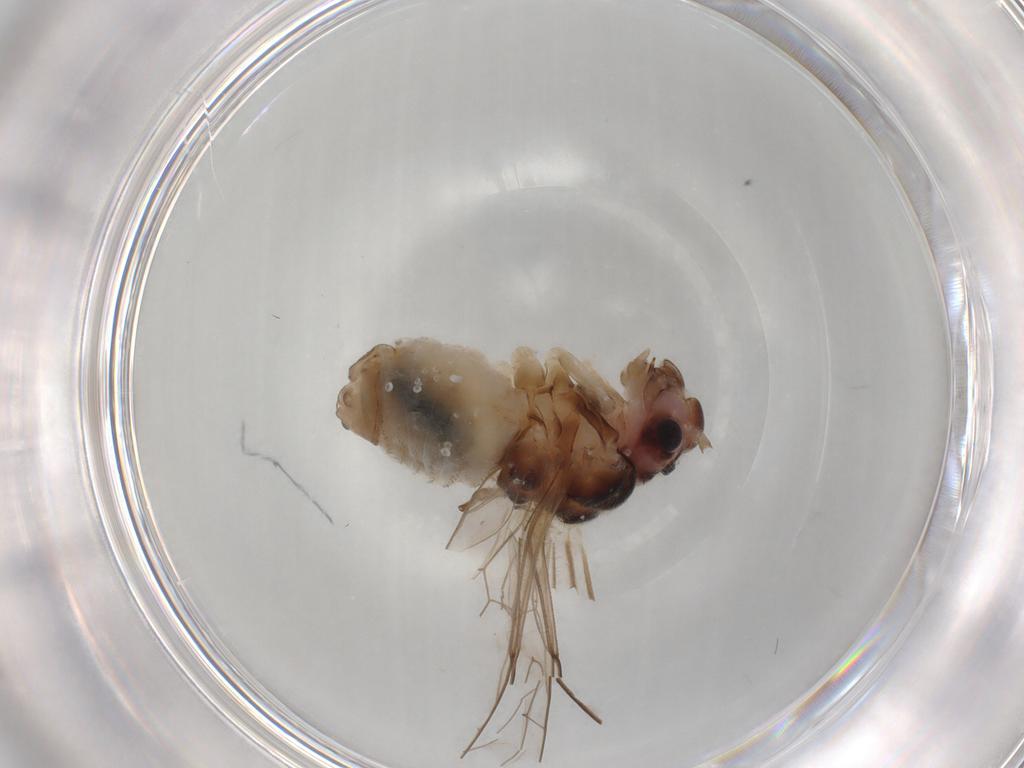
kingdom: Animalia
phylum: Arthropoda
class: Insecta
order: Psocodea
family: Stenopsocidae
